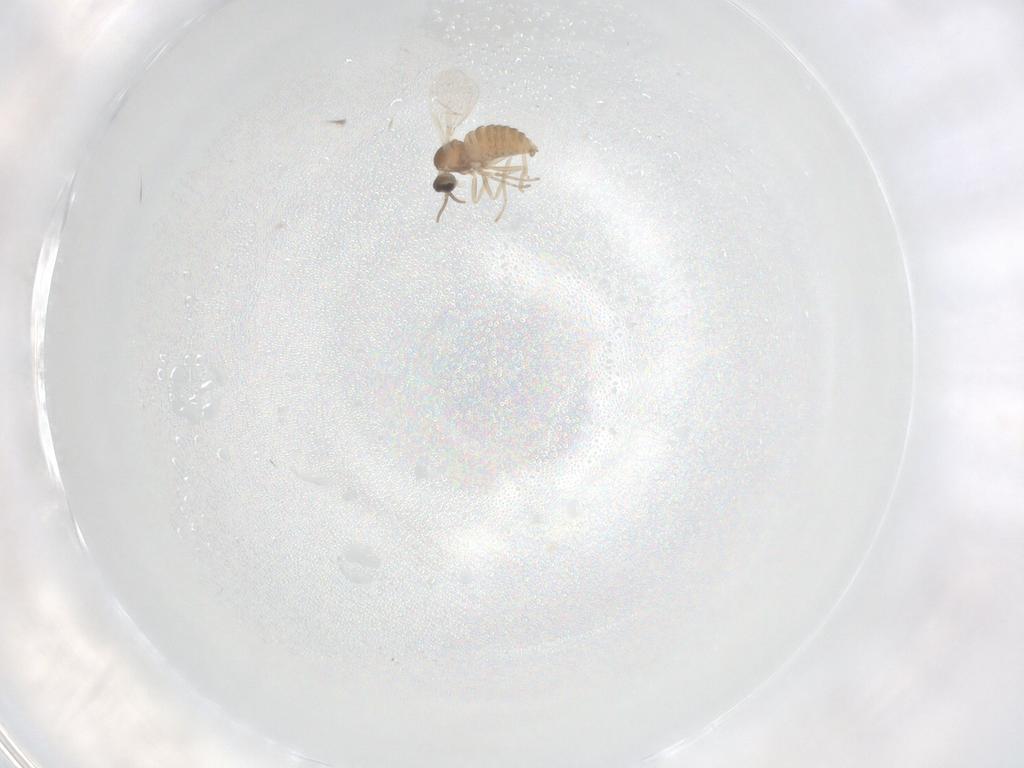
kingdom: Animalia
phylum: Arthropoda
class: Insecta
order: Diptera
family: Cecidomyiidae
